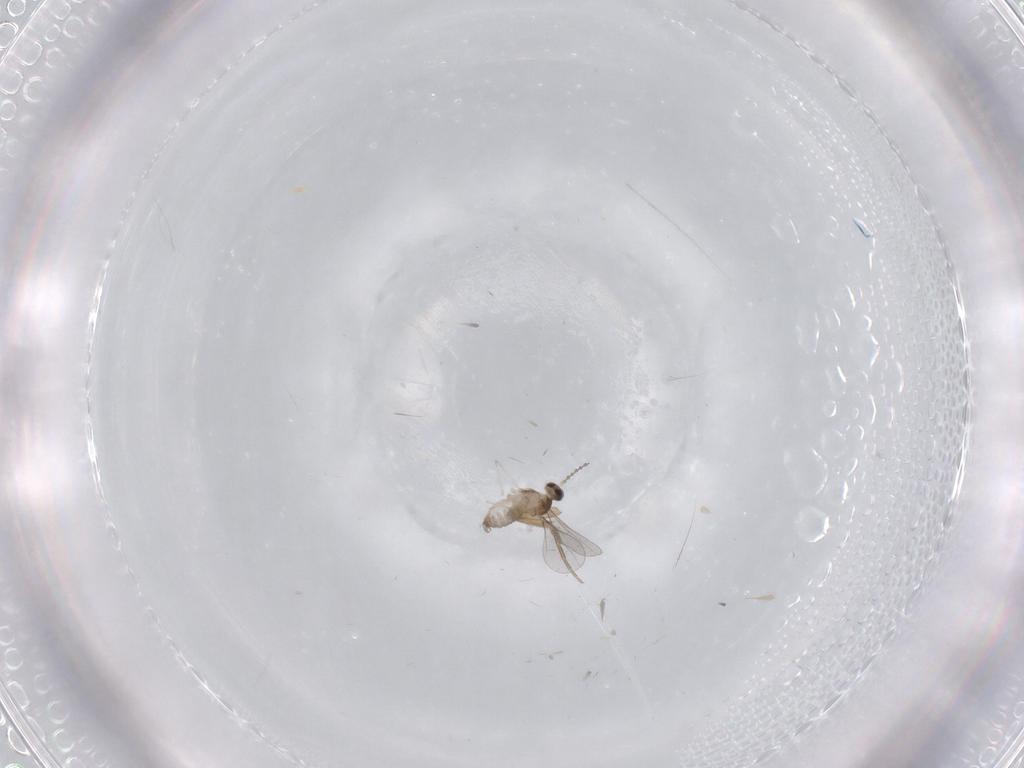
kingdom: Animalia
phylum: Arthropoda
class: Insecta
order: Diptera
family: Cecidomyiidae
